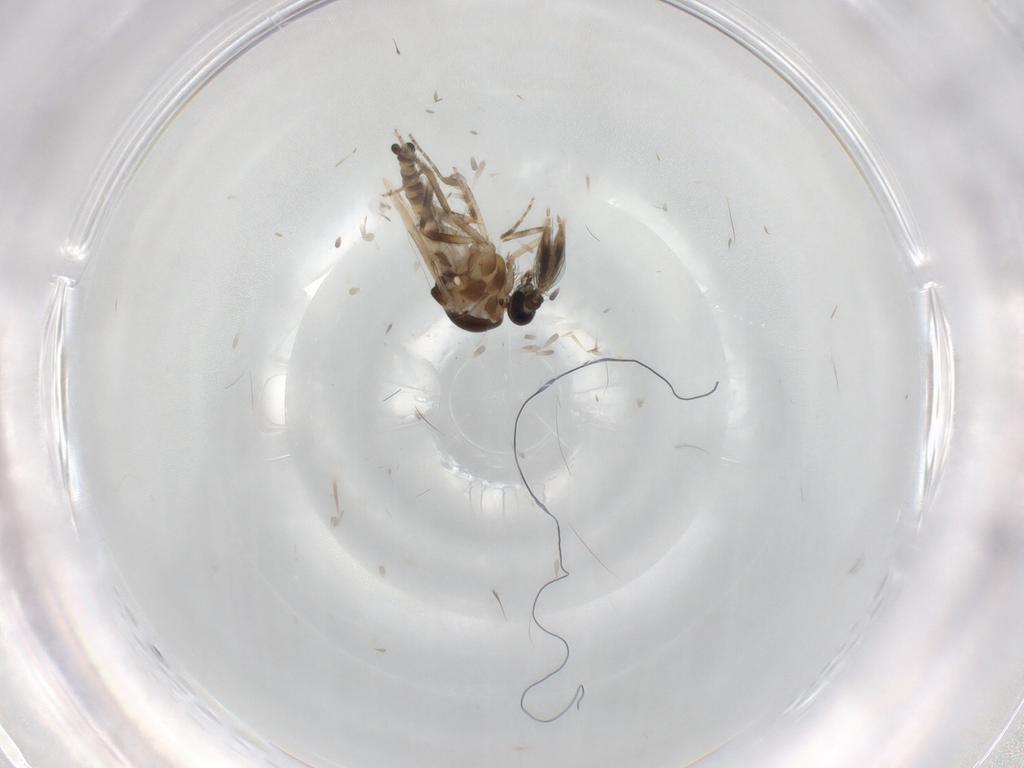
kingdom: Animalia
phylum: Arthropoda
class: Insecta
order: Diptera
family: Ceratopogonidae
